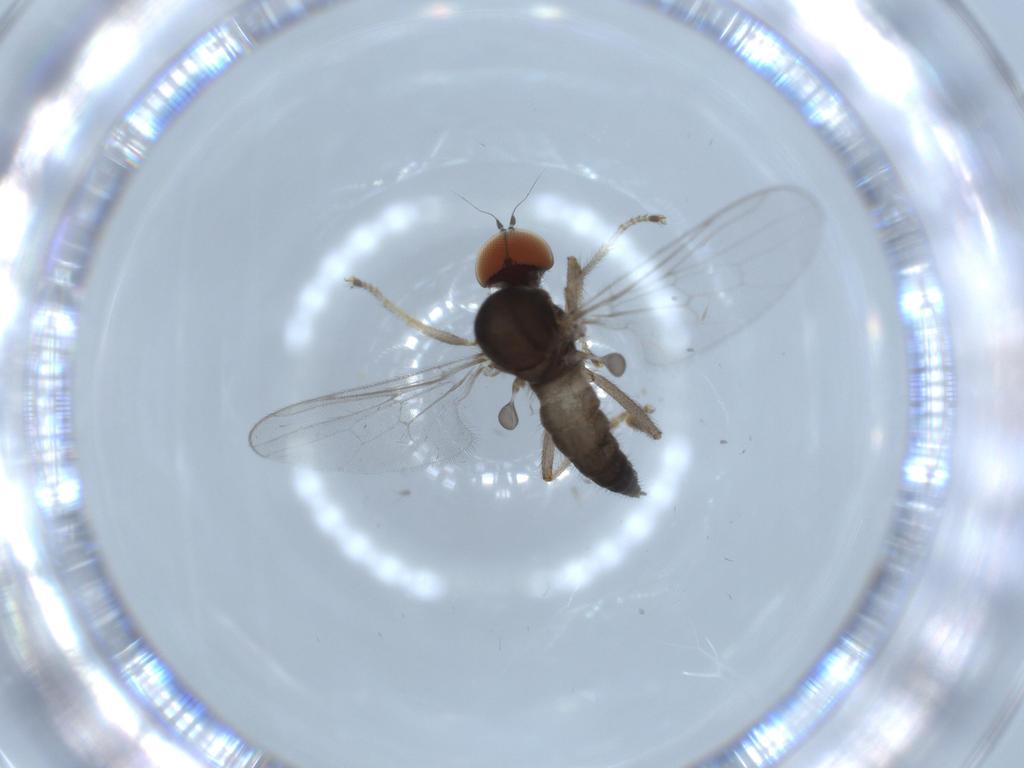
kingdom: Animalia
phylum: Arthropoda
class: Insecta
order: Diptera
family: Hybotidae
